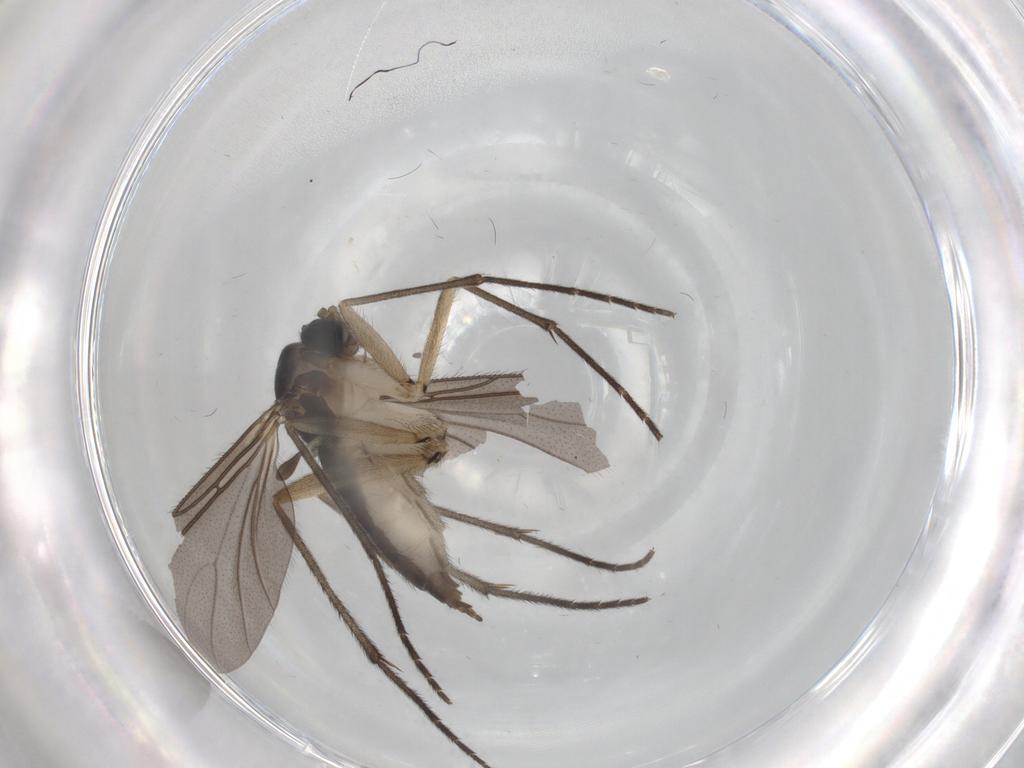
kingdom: Animalia
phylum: Arthropoda
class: Insecta
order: Diptera
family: Sciaridae
